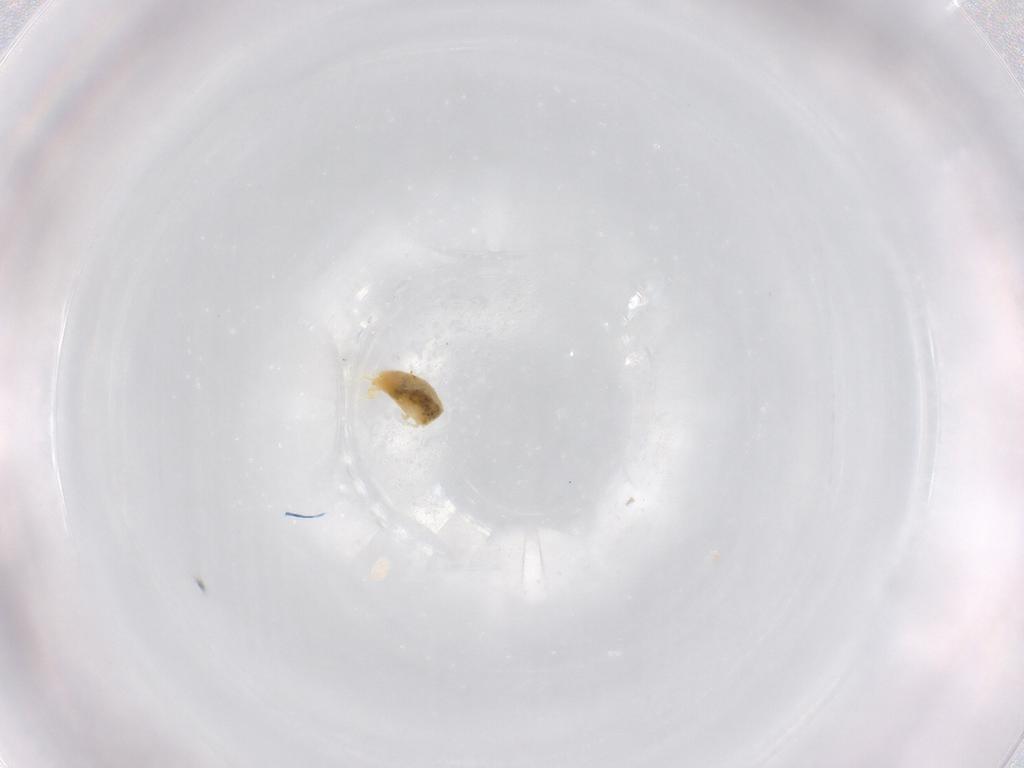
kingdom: Animalia
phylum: Arthropoda
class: Arachnida
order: Trombidiformes
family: Tetranychidae
